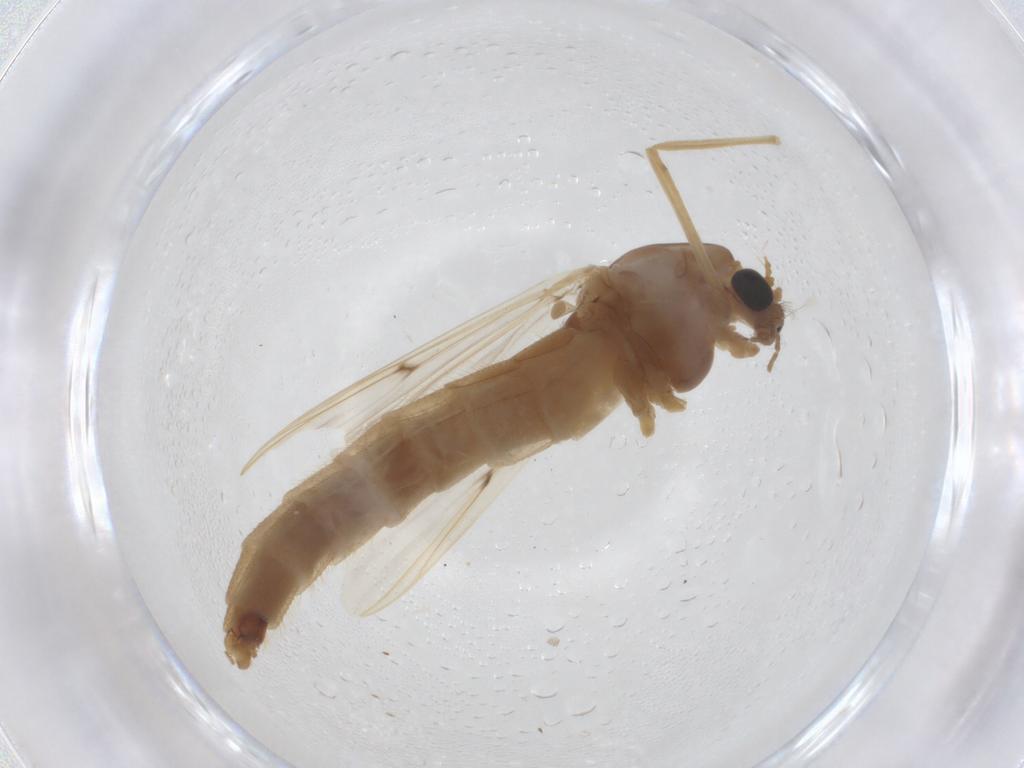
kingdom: Animalia
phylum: Arthropoda
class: Insecta
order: Diptera
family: Chironomidae
